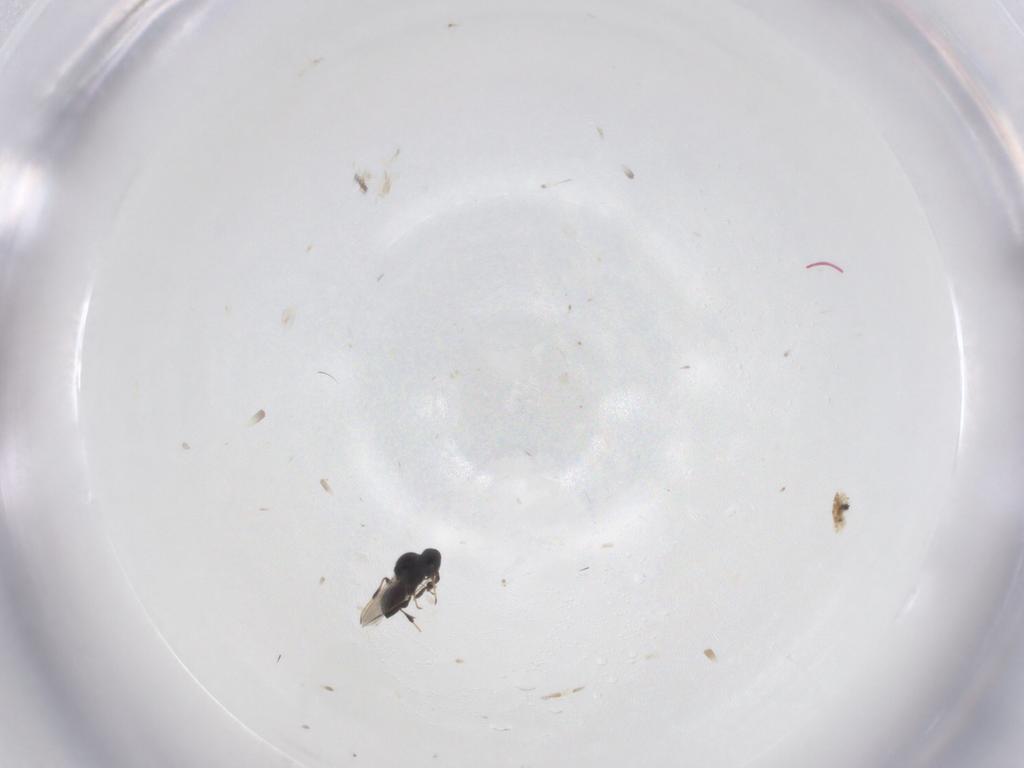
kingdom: Animalia
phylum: Arthropoda
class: Insecta
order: Hymenoptera
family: Platygastridae
